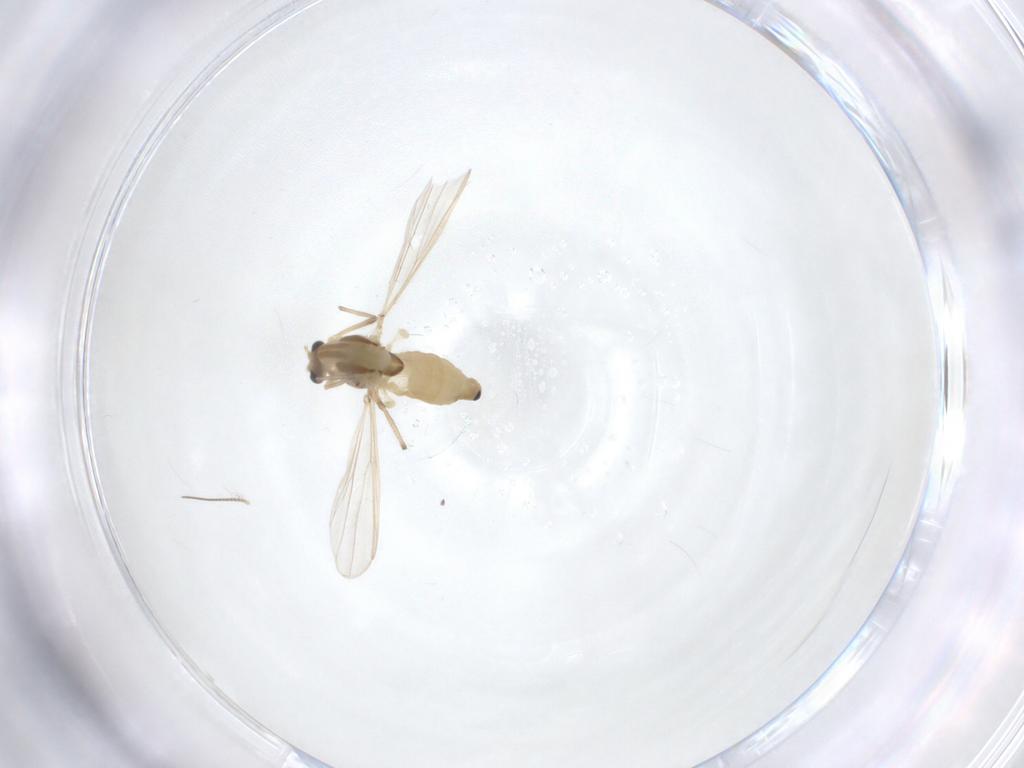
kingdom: Animalia
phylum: Arthropoda
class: Insecta
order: Diptera
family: Chironomidae
